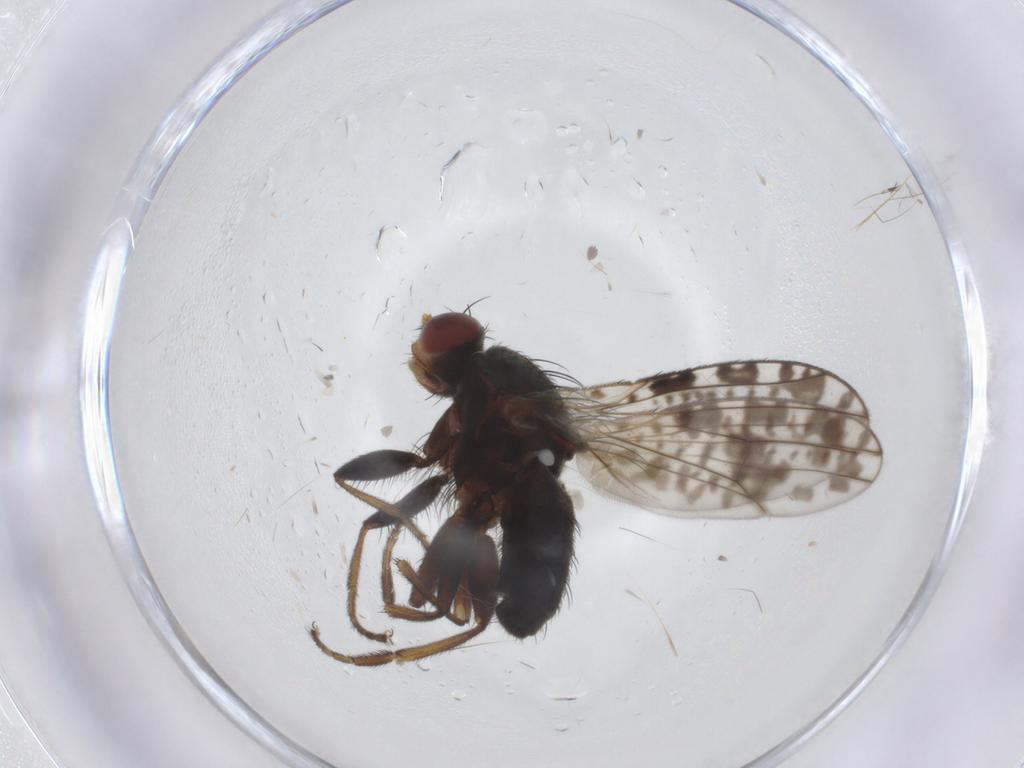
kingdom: Animalia
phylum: Arthropoda
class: Insecta
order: Diptera
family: Heleomyzidae
